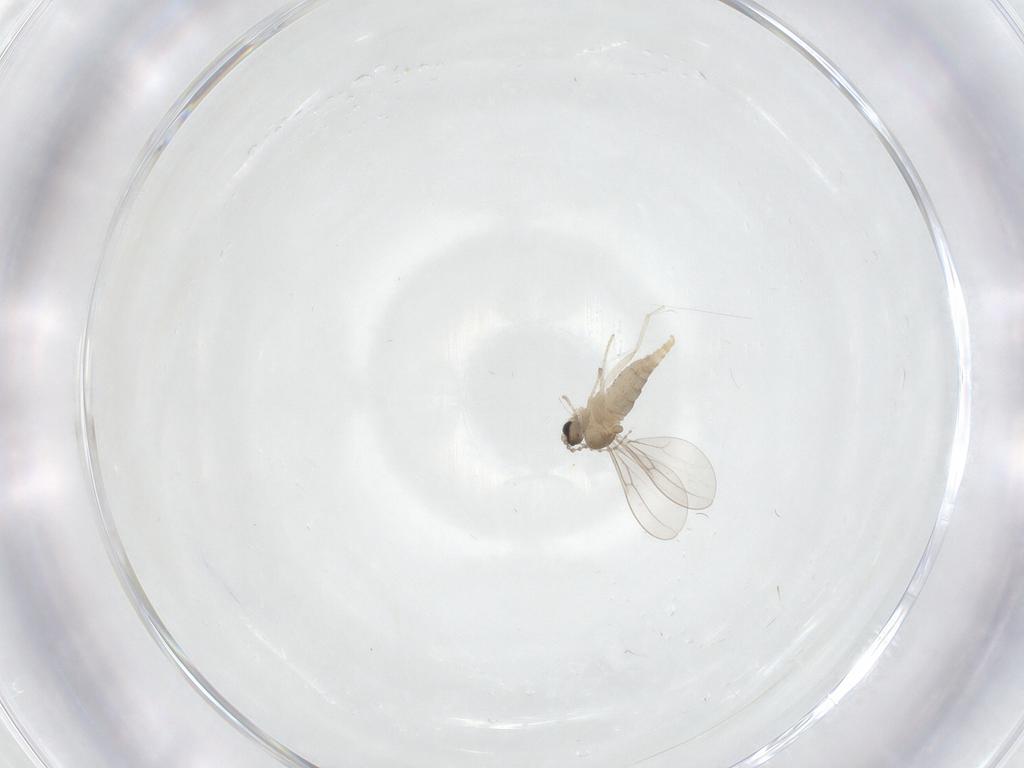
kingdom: Animalia
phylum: Arthropoda
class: Insecta
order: Diptera
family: Cecidomyiidae
